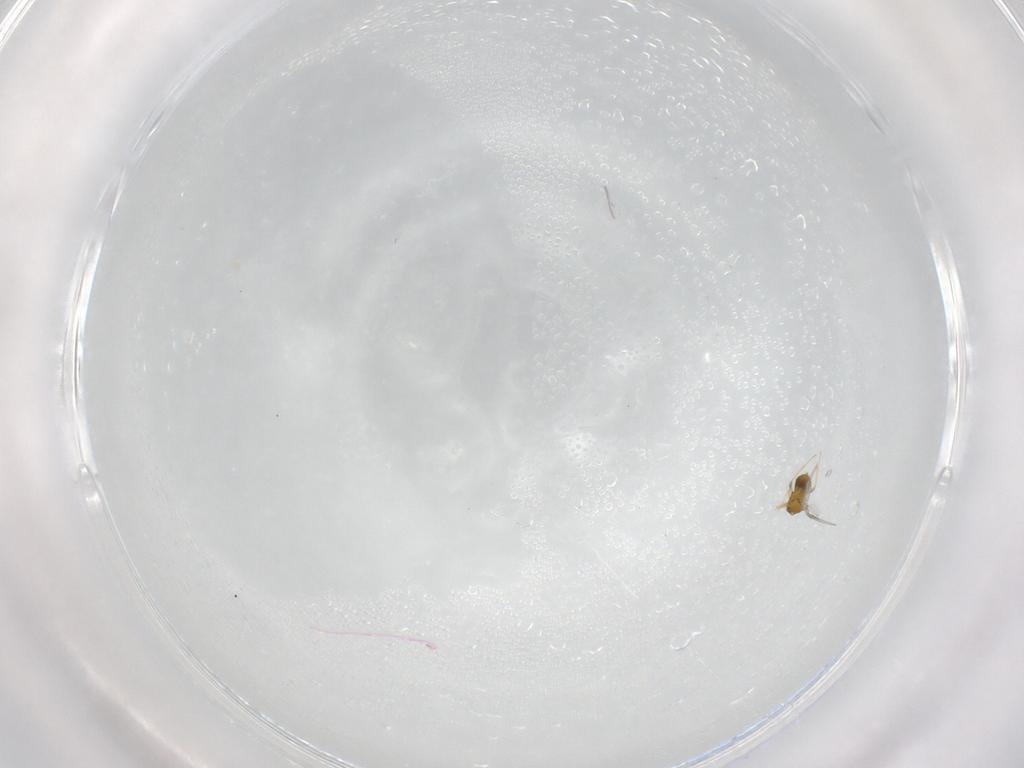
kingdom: Animalia
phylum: Arthropoda
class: Insecta
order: Hymenoptera
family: Argidae
